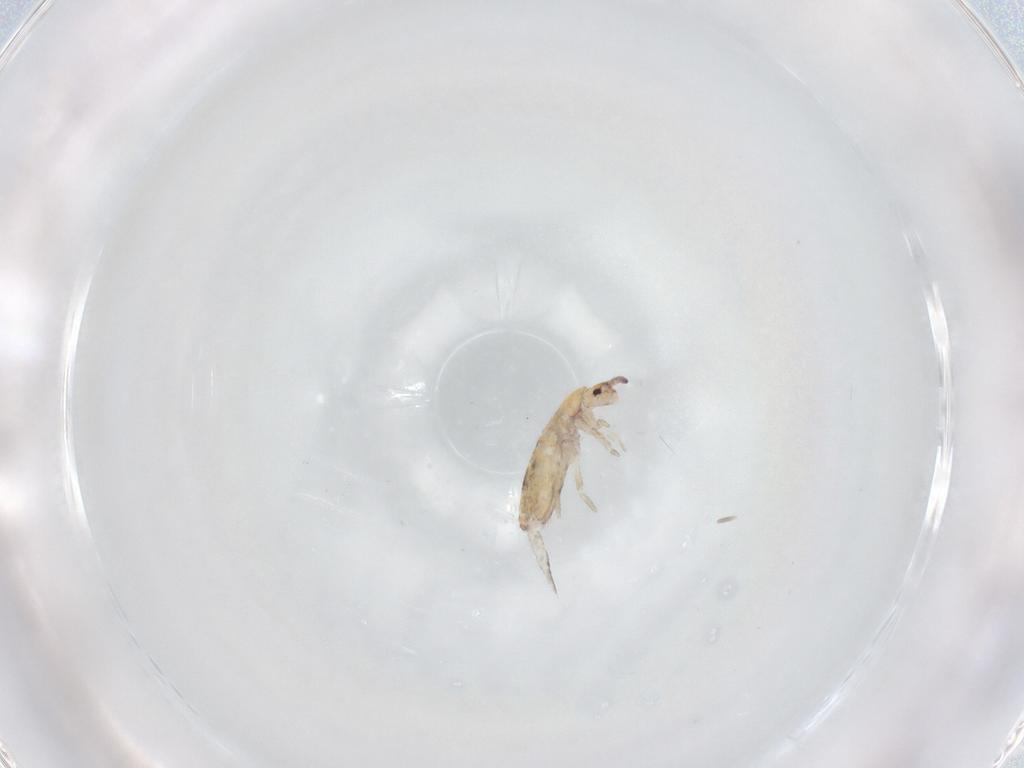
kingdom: Animalia
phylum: Arthropoda
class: Collembola
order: Entomobryomorpha
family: Entomobryidae
